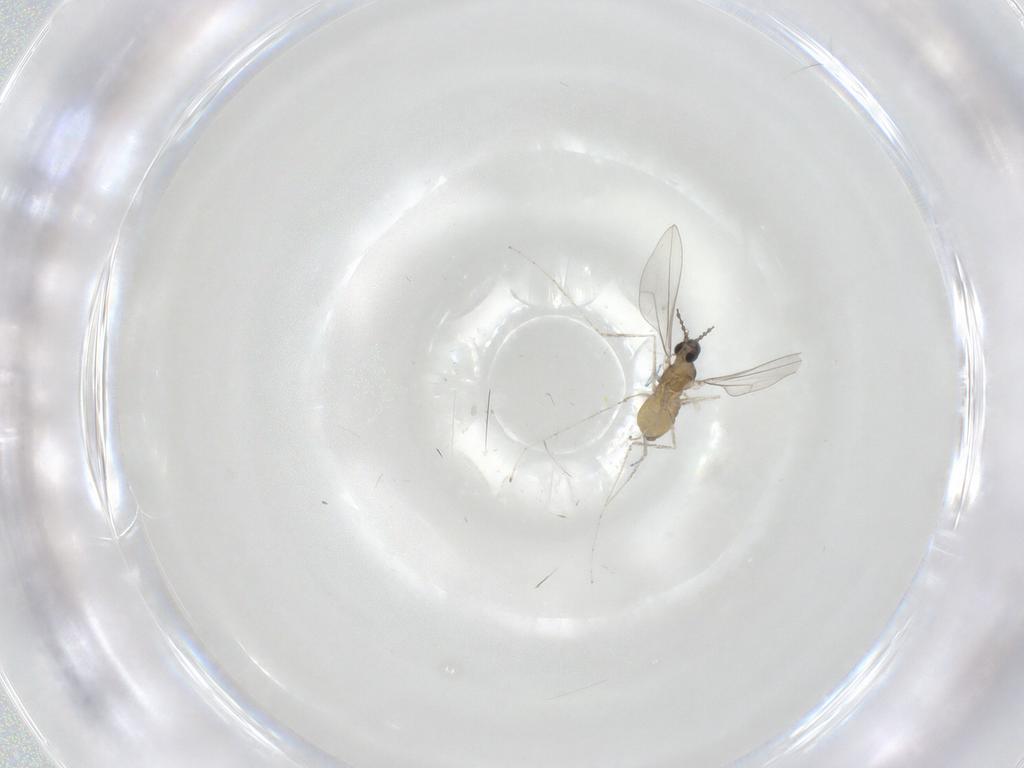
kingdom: Animalia
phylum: Arthropoda
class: Insecta
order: Diptera
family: Cecidomyiidae
